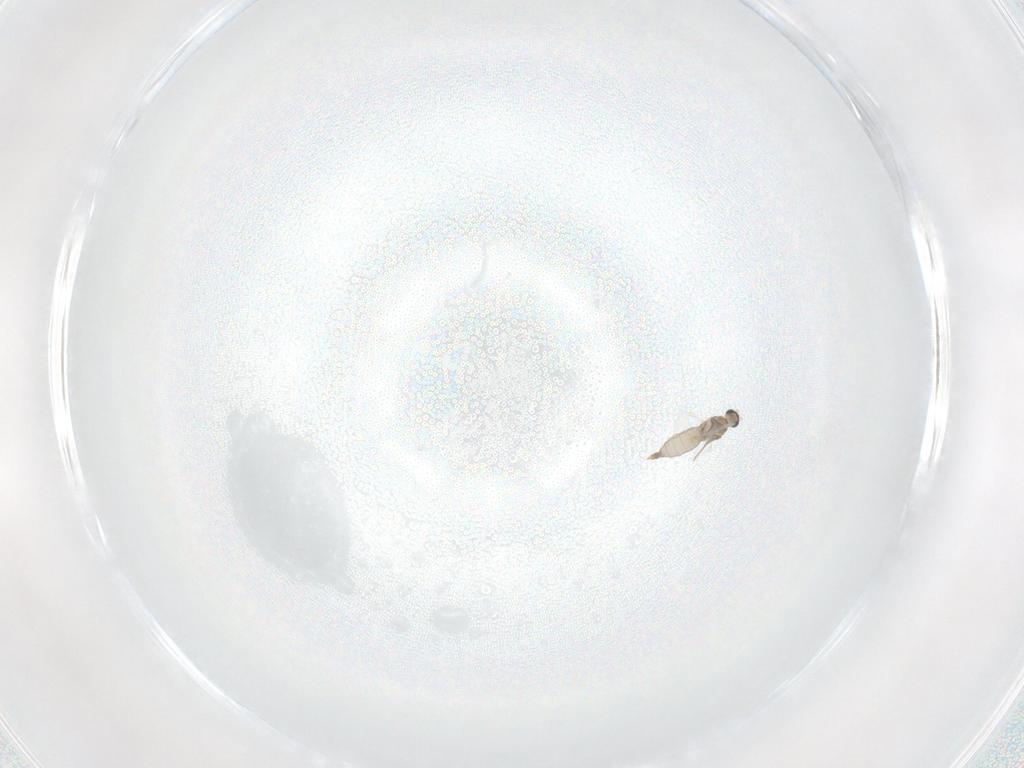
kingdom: Animalia
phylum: Arthropoda
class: Insecta
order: Diptera
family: Cecidomyiidae
